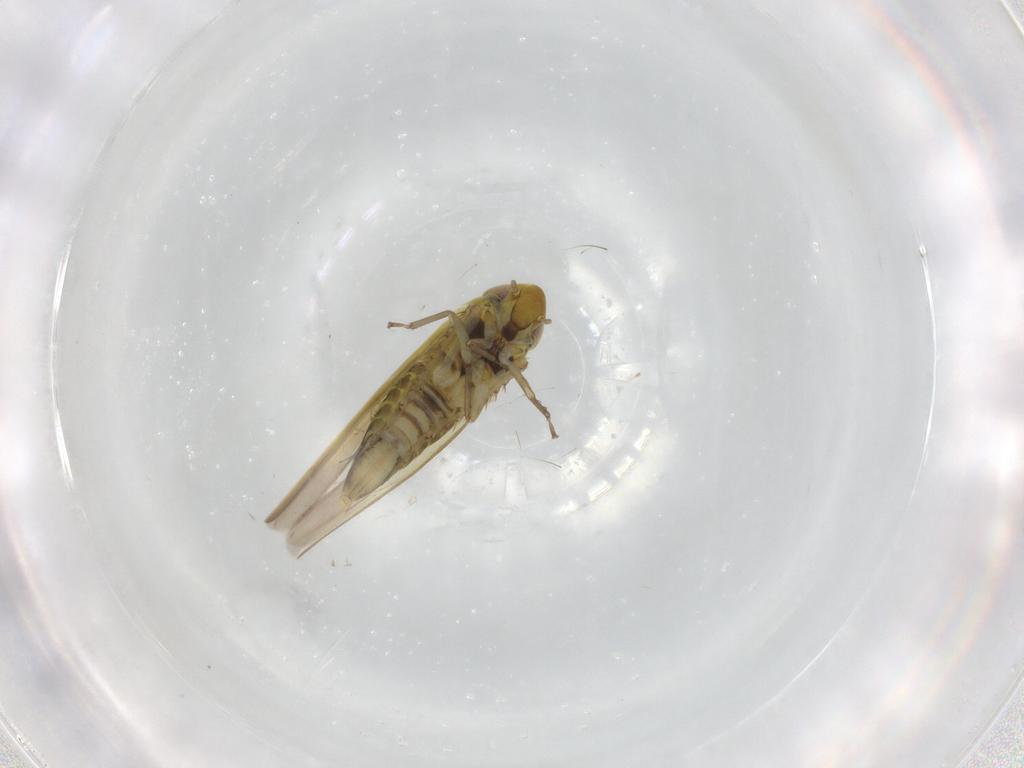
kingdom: Animalia
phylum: Arthropoda
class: Insecta
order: Hemiptera
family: Cicadellidae
